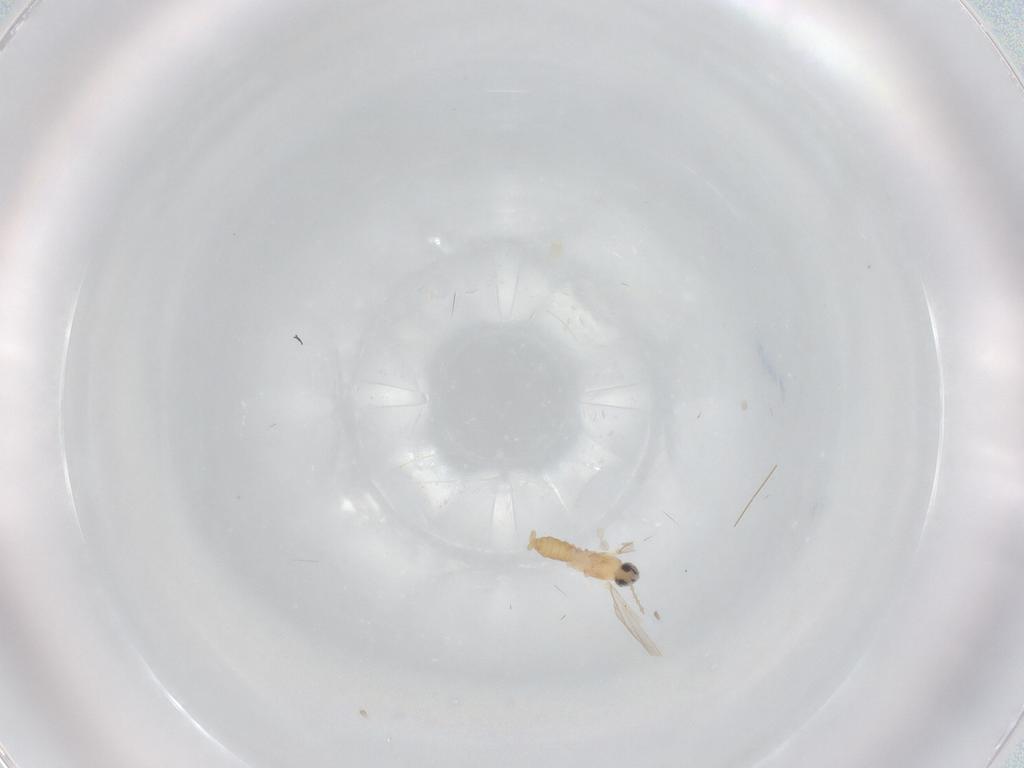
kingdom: Animalia
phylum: Arthropoda
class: Insecta
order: Diptera
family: Cecidomyiidae
